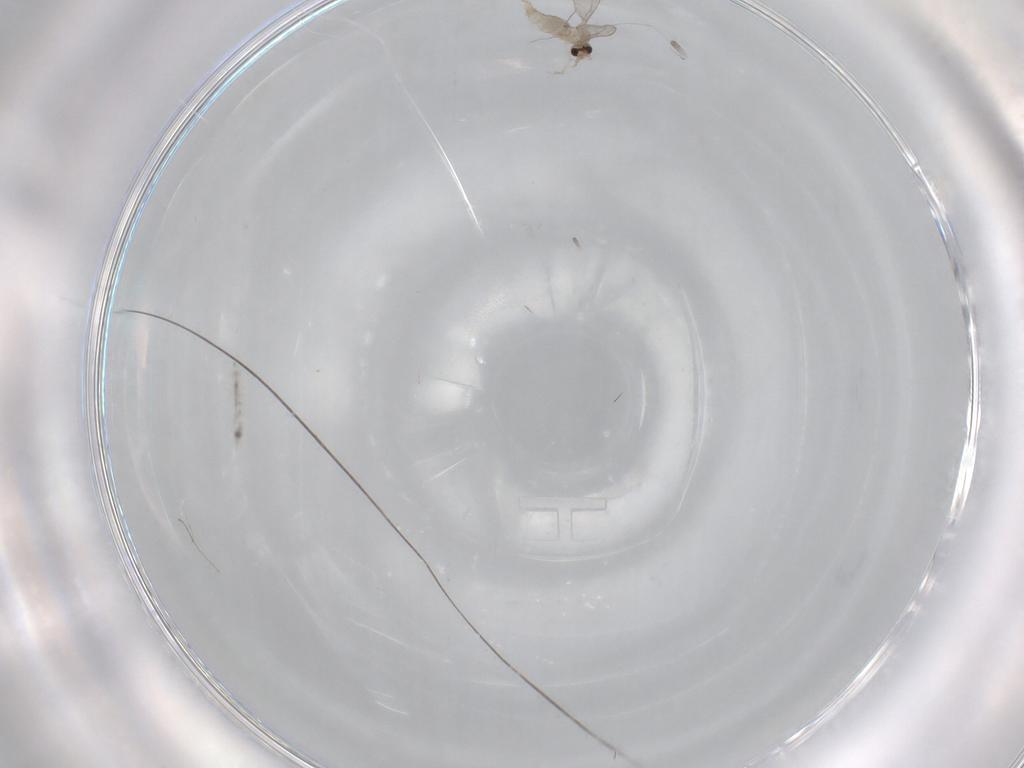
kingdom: Animalia
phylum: Arthropoda
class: Insecta
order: Diptera
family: Cecidomyiidae
